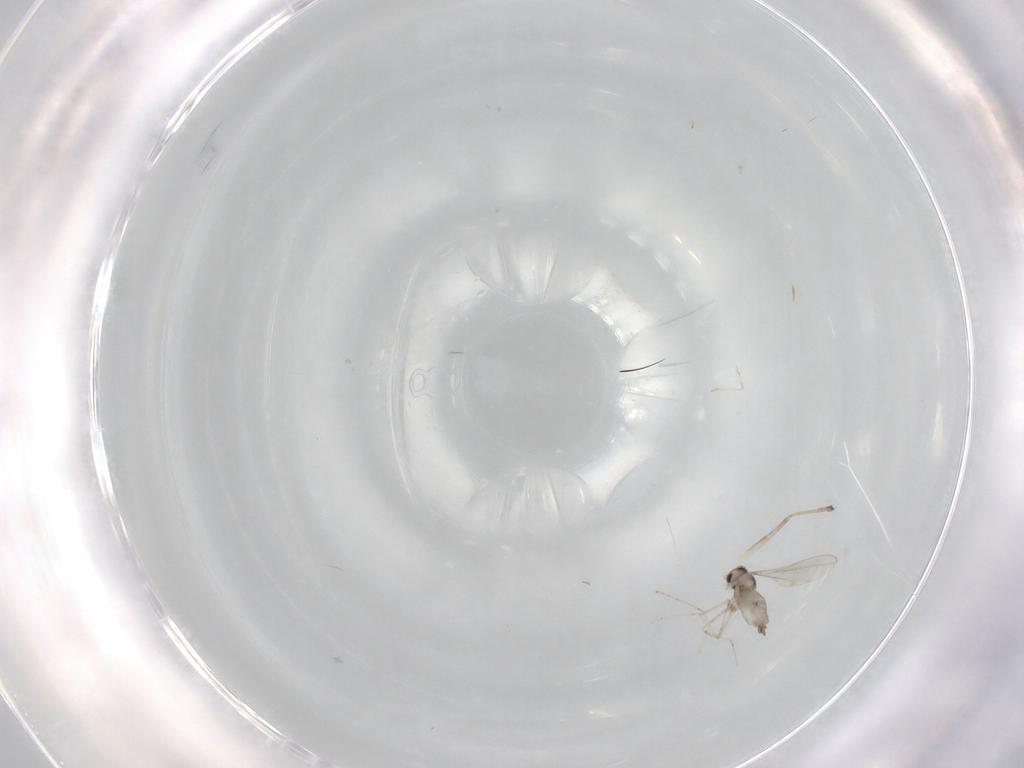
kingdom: Animalia
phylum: Arthropoda
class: Insecta
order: Diptera
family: Chironomidae
